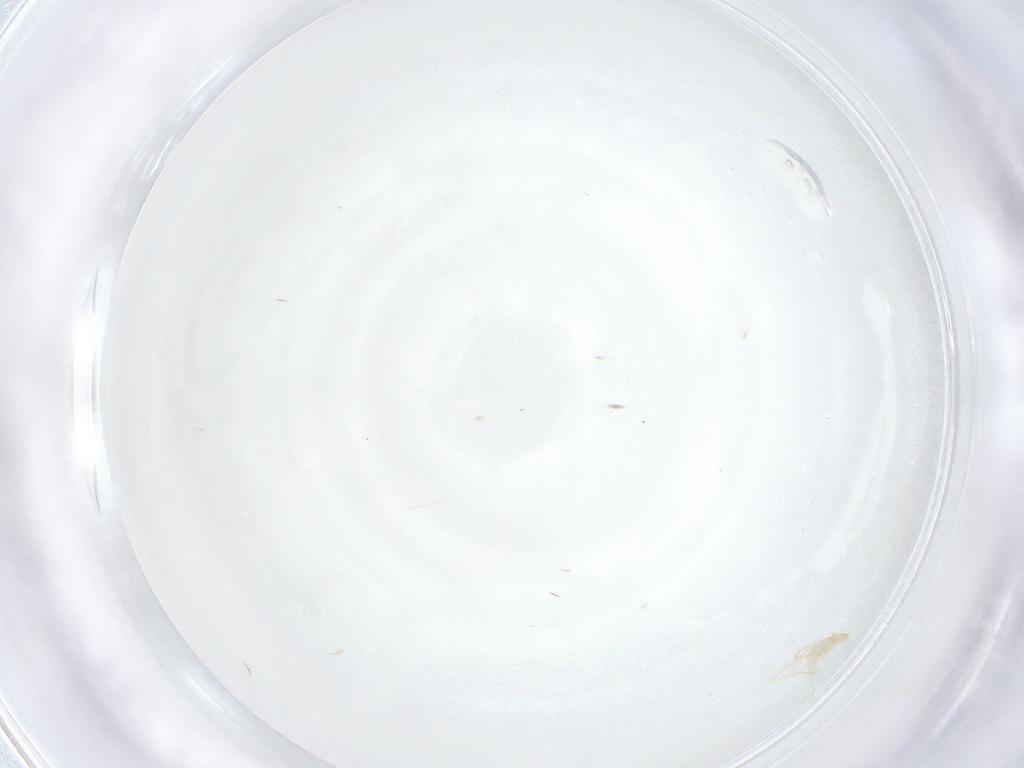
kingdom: Animalia
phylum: Arthropoda
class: Arachnida
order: Trombidiformes
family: Erythraeidae
